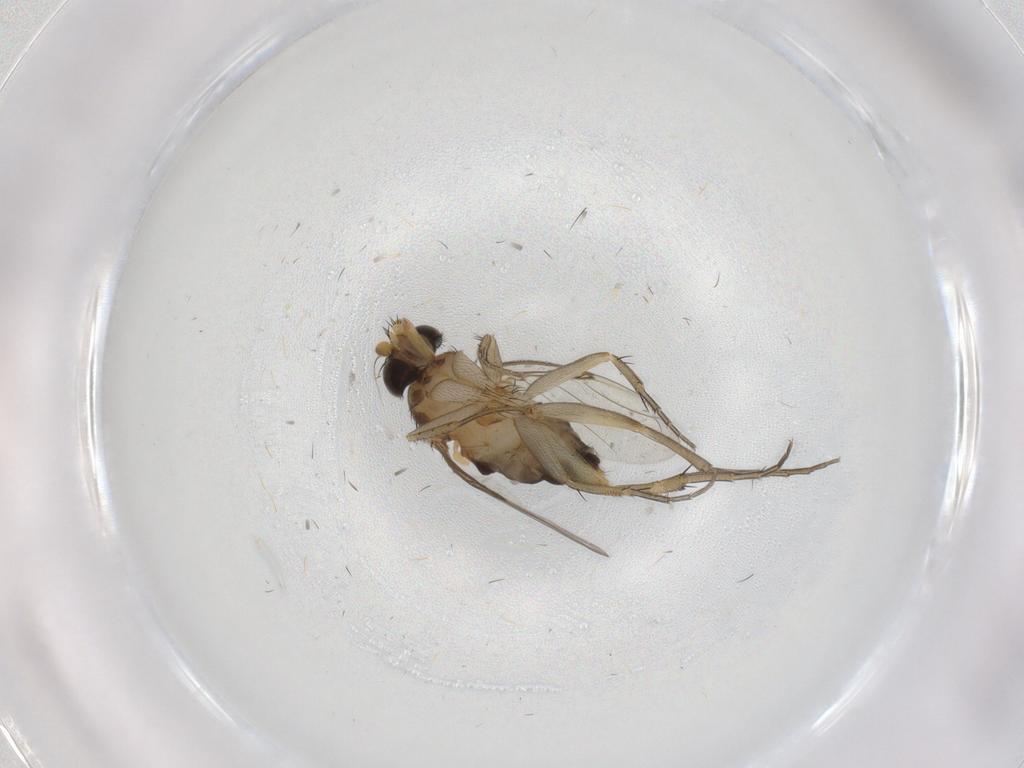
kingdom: Animalia
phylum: Arthropoda
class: Insecta
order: Diptera
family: Phoridae
